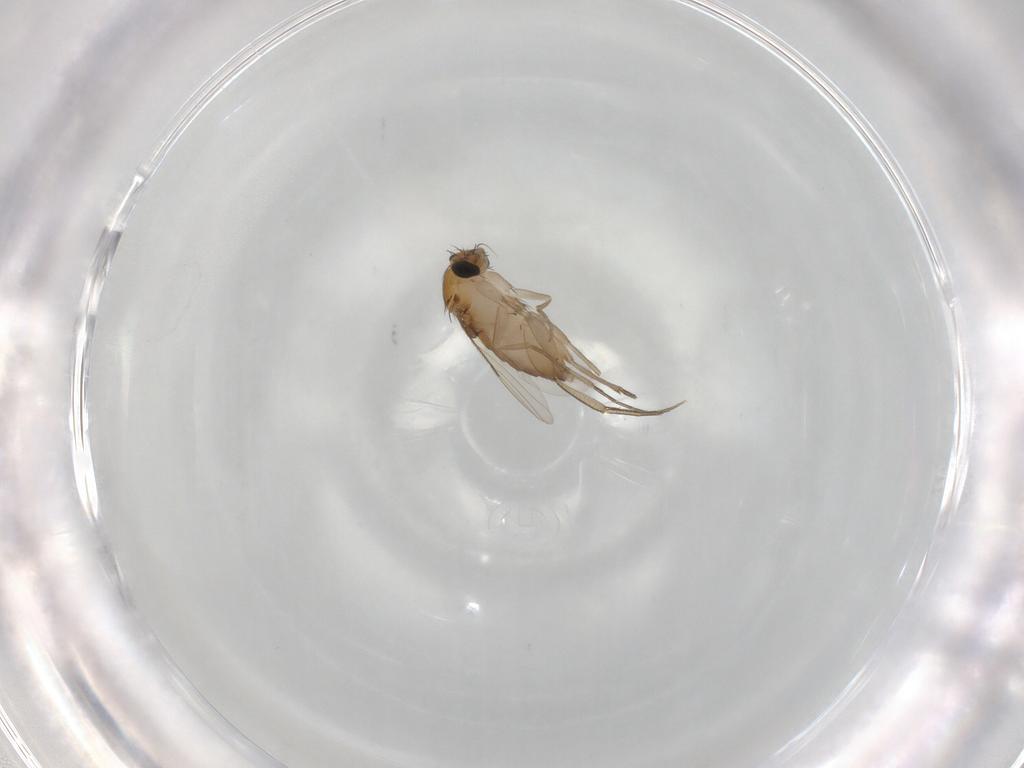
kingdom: Animalia
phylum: Arthropoda
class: Insecta
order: Diptera
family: Phoridae
